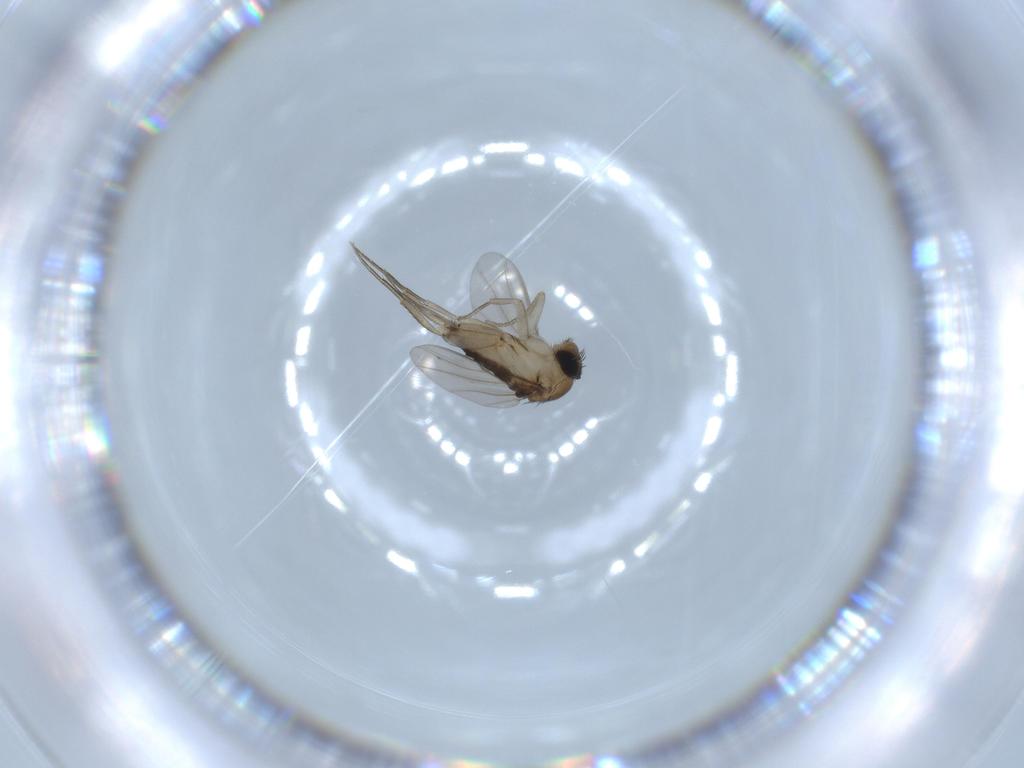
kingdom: Animalia
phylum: Arthropoda
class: Insecta
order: Diptera
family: Phoridae
